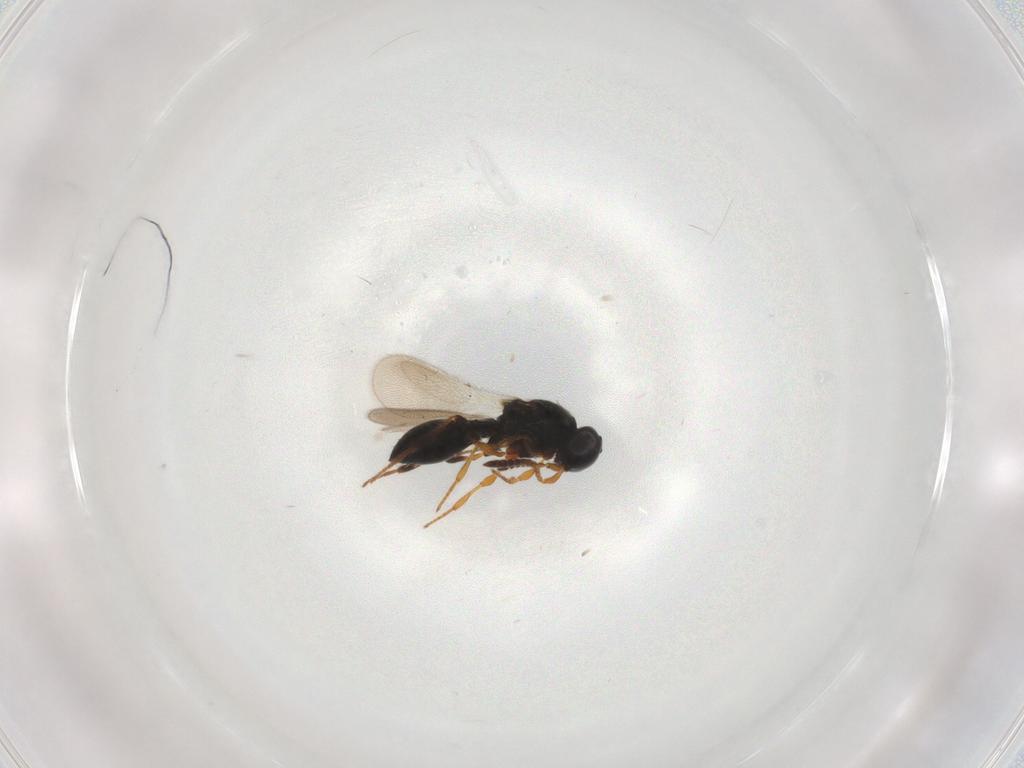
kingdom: Animalia
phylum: Arthropoda
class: Insecta
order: Hymenoptera
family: Platygastridae
